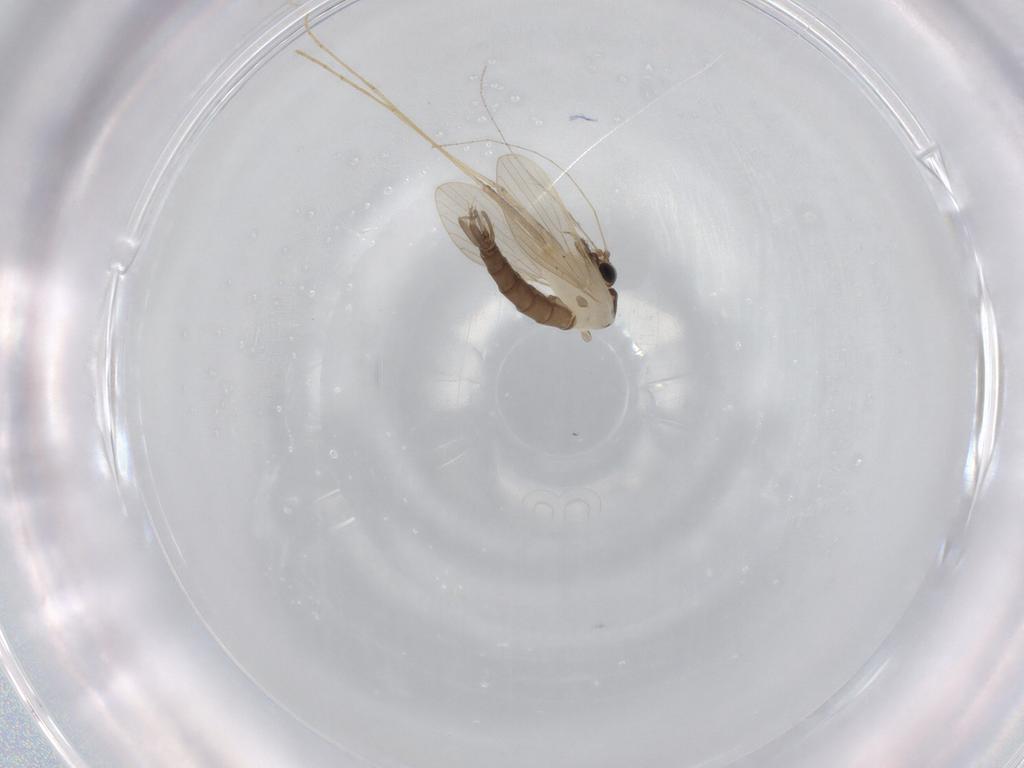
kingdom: Animalia
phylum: Arthropoda
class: Insecta
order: Diptera
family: Psychodidae
